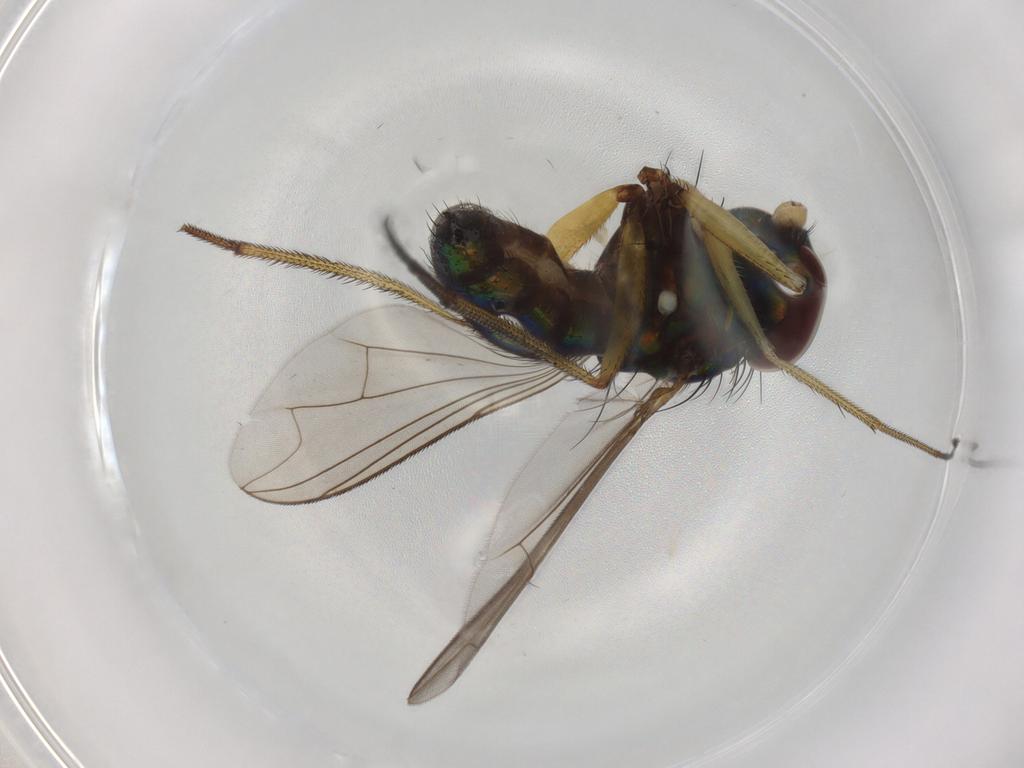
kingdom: Animalia
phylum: Arthropoda
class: Insecta
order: Diptera
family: Dolichopodidae
